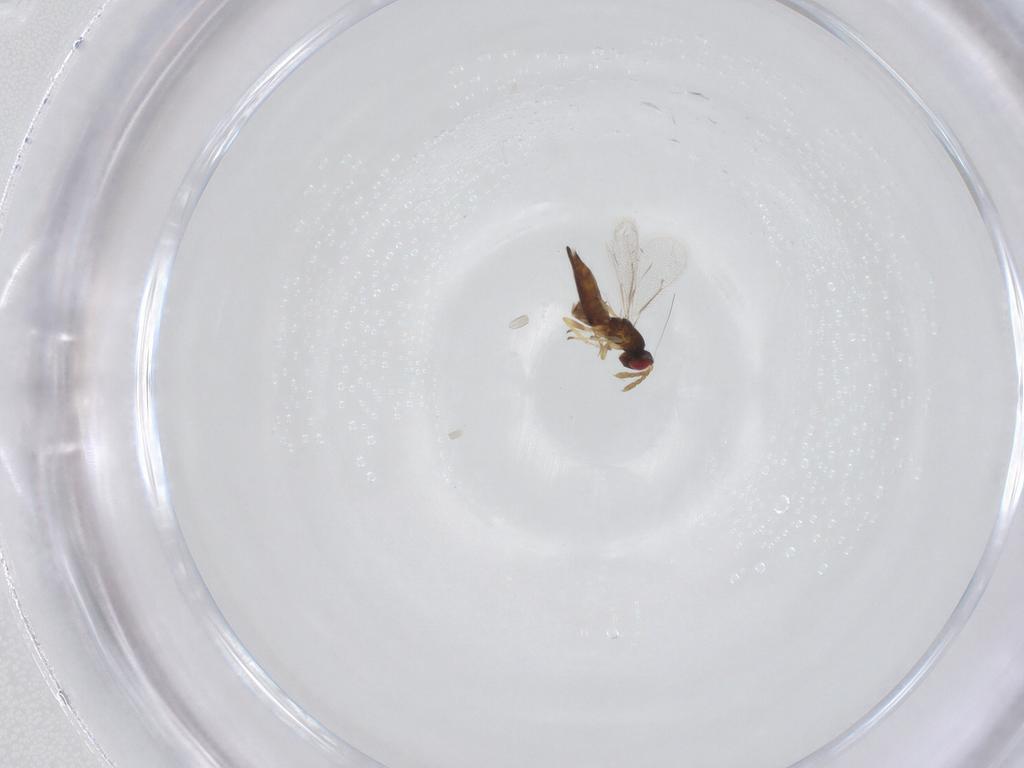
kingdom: Animalia
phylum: Arthropoda
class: Insecta
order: Hymenoptera
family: Eulophidae
